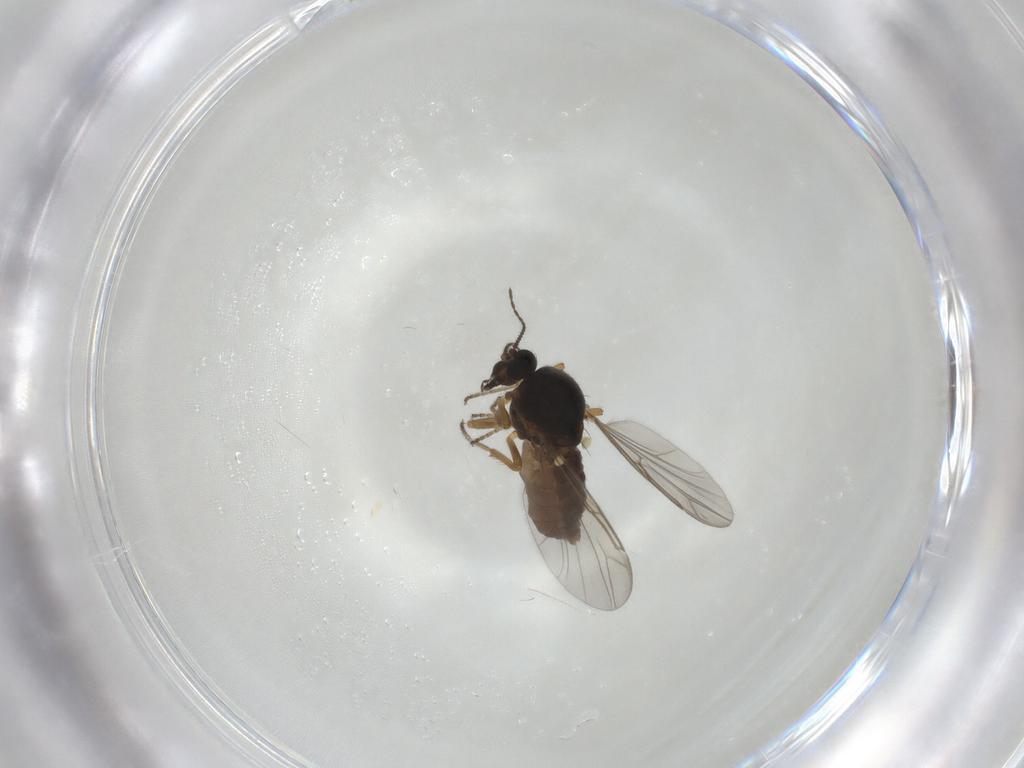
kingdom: Animalia
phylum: Arthropoda
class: Insecta
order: Diptera
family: Ceratopogonidae
